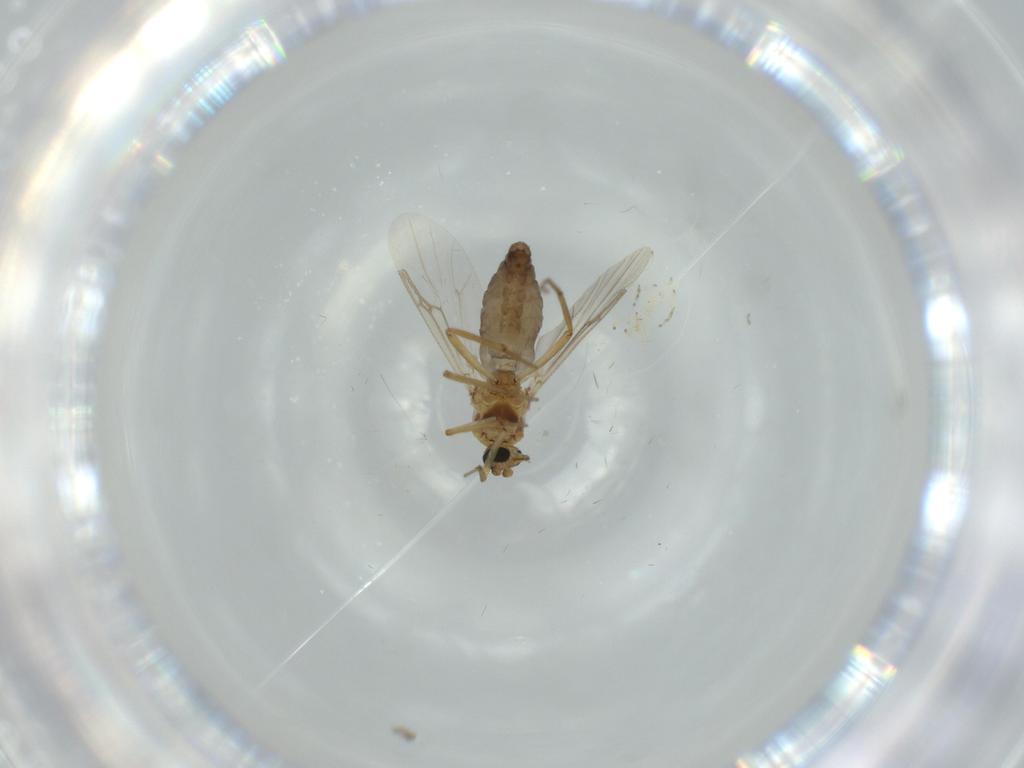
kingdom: Animalia
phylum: Arthropoda
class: Insecta
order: Diptera
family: Ceratopogonidae
